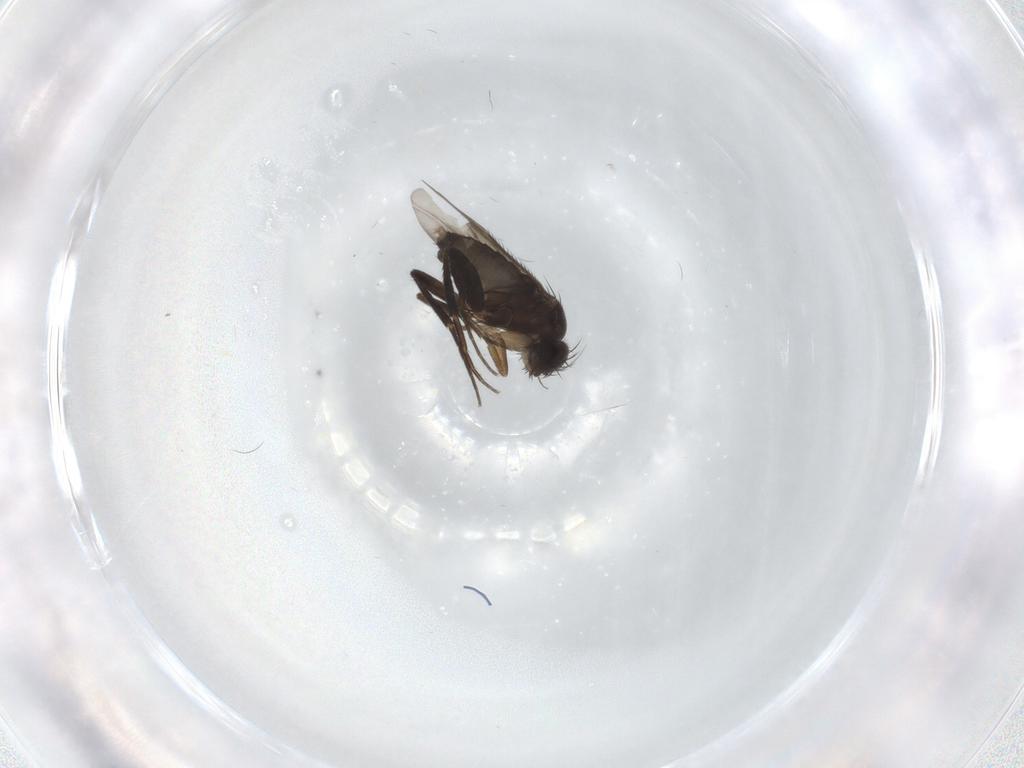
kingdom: Animalia
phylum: Arthropoda
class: Insecta
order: Diptera
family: Phoridae
